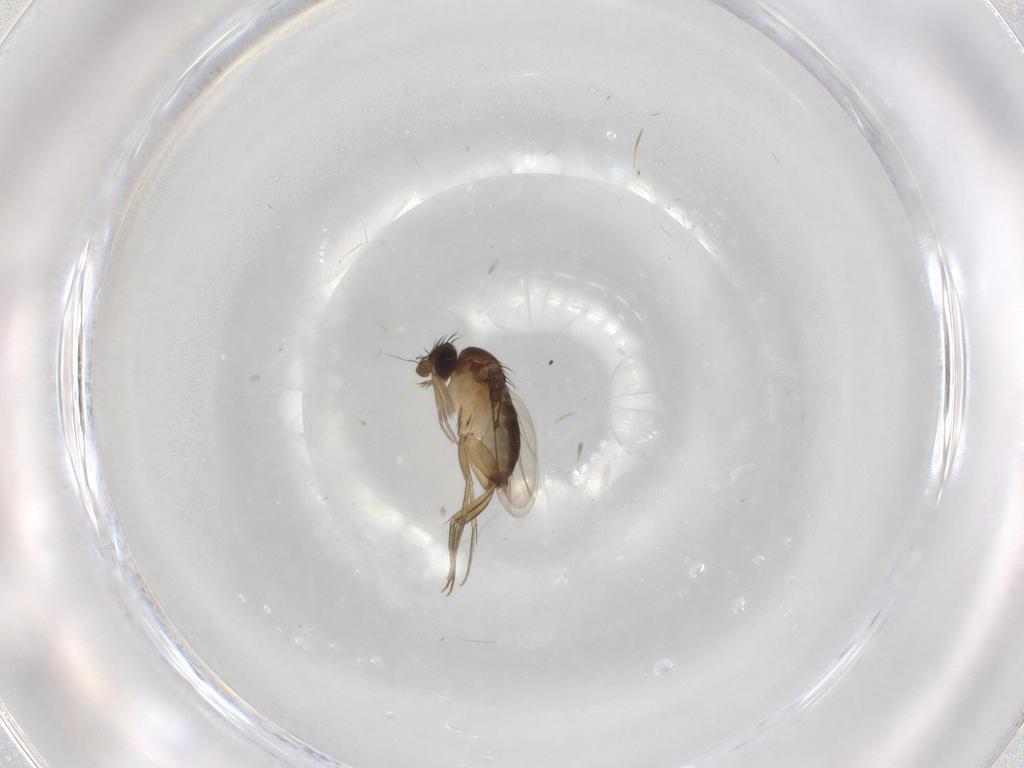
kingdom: Animalia
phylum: Arthropoda
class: Insecta
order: Diptera
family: Phoridae
